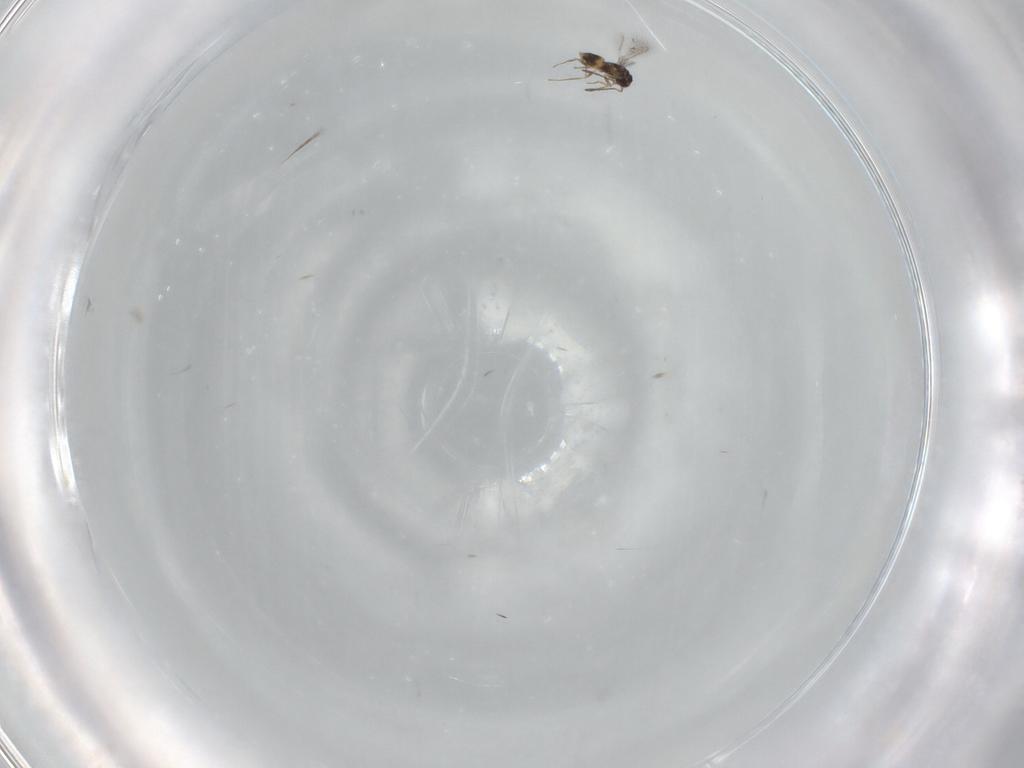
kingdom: Animalia
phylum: Arthropoda
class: Insecta
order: Hymenoptera
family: Mymaridae
